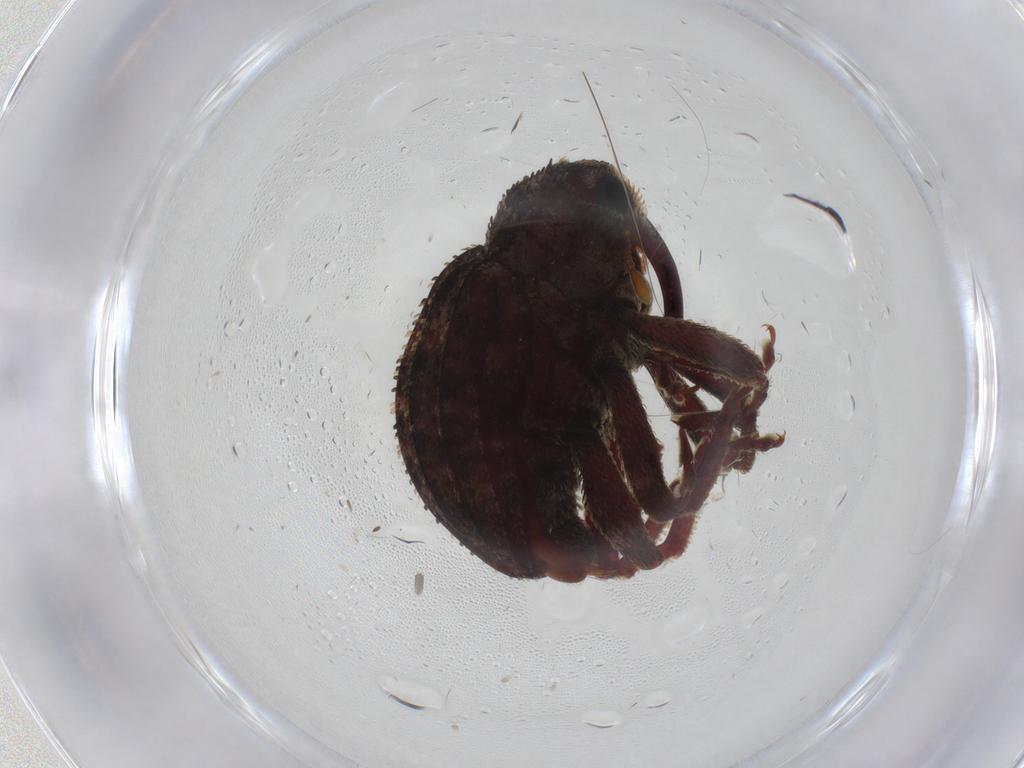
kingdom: Animalia
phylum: Arthropoda
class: Insecta
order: Coleoptera
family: Curculionidae
